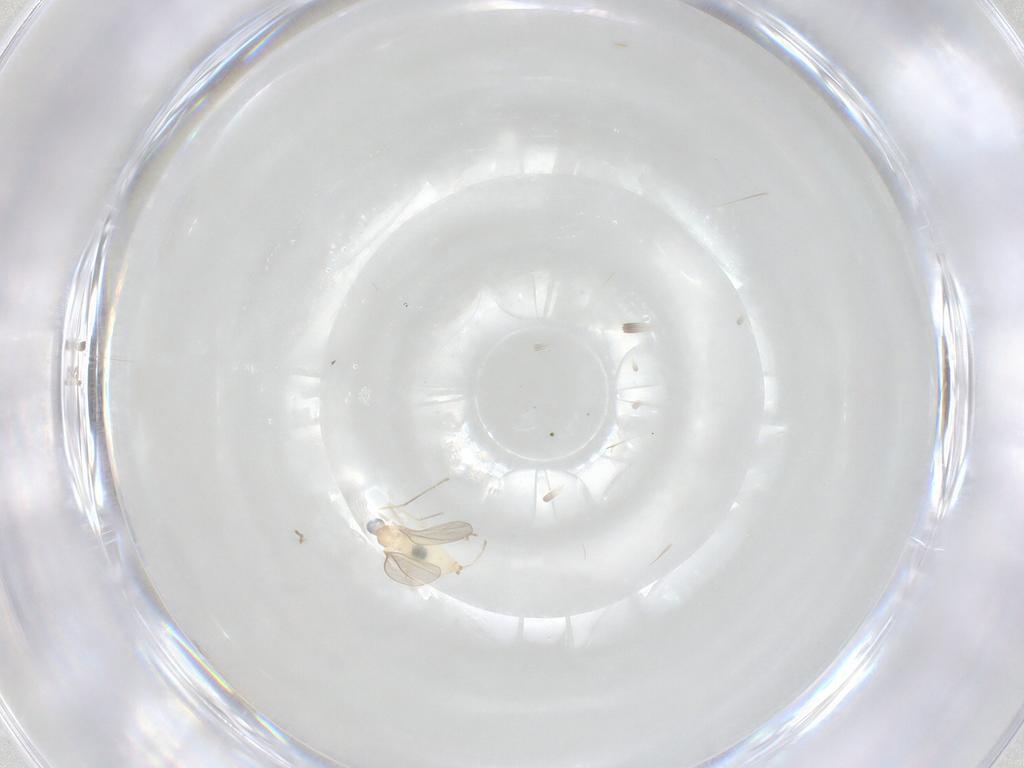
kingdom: Animalia
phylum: Arthropoda
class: Insecta
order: Diptera
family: Cecidomyiidae
